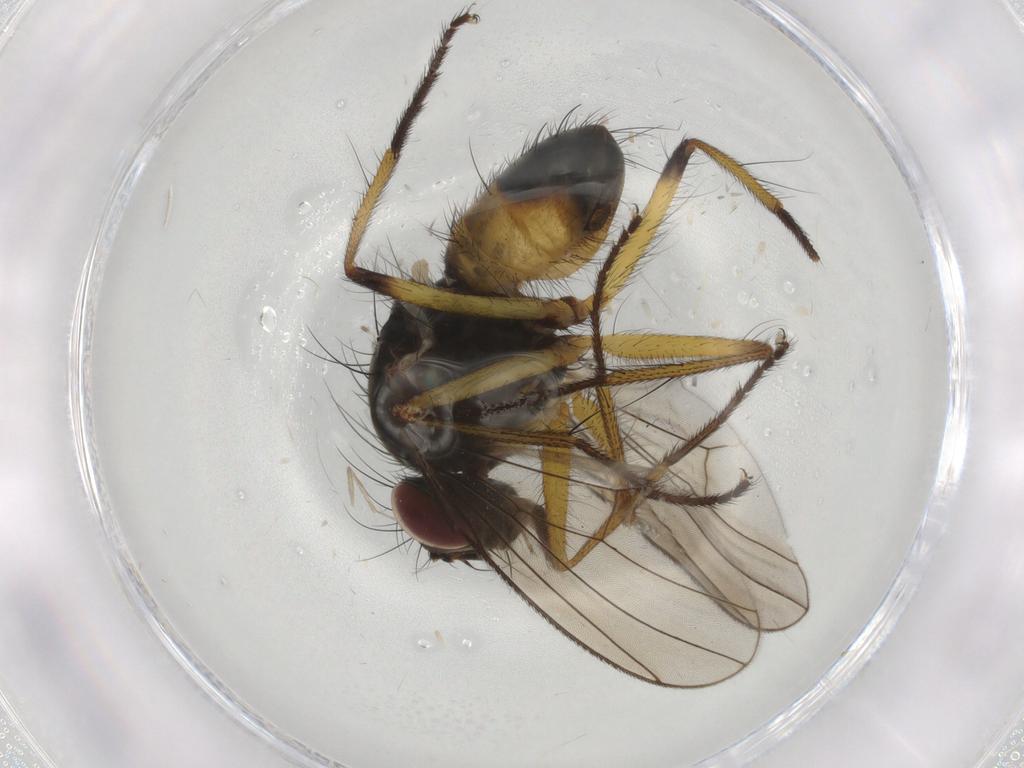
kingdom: Animalia
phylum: Arthropoda
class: Insecta
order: Diptera
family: Muscidae
